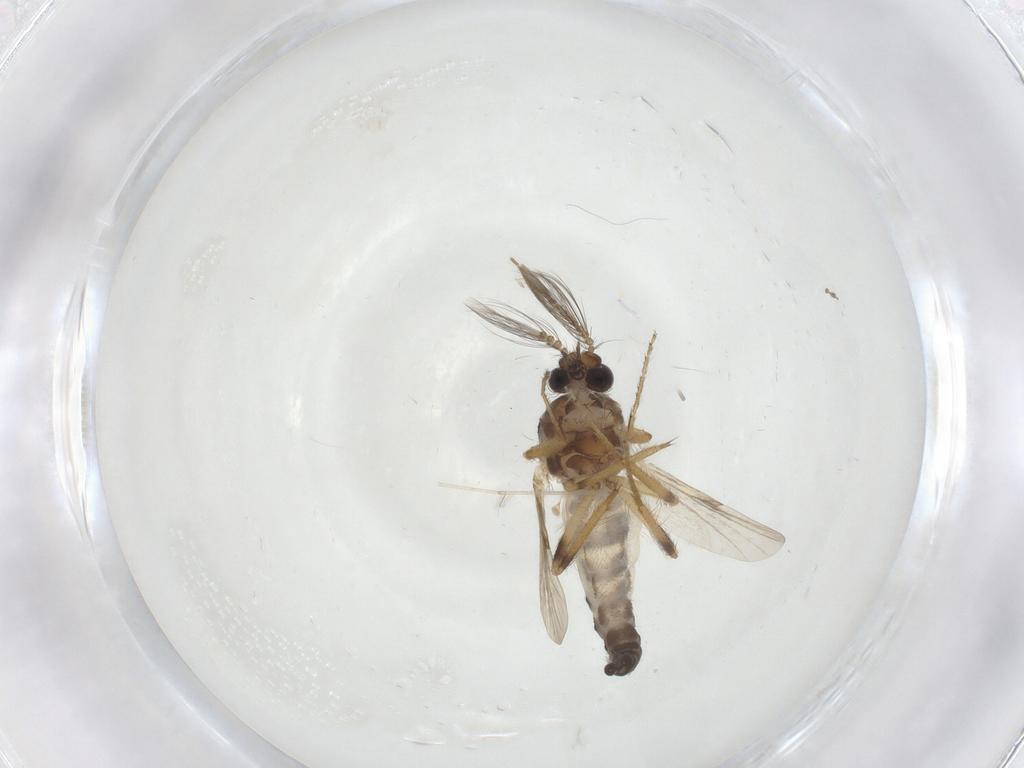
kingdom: Animalia
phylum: Arthropoda
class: Insecta
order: Diptera
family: Ceratopogonidae
